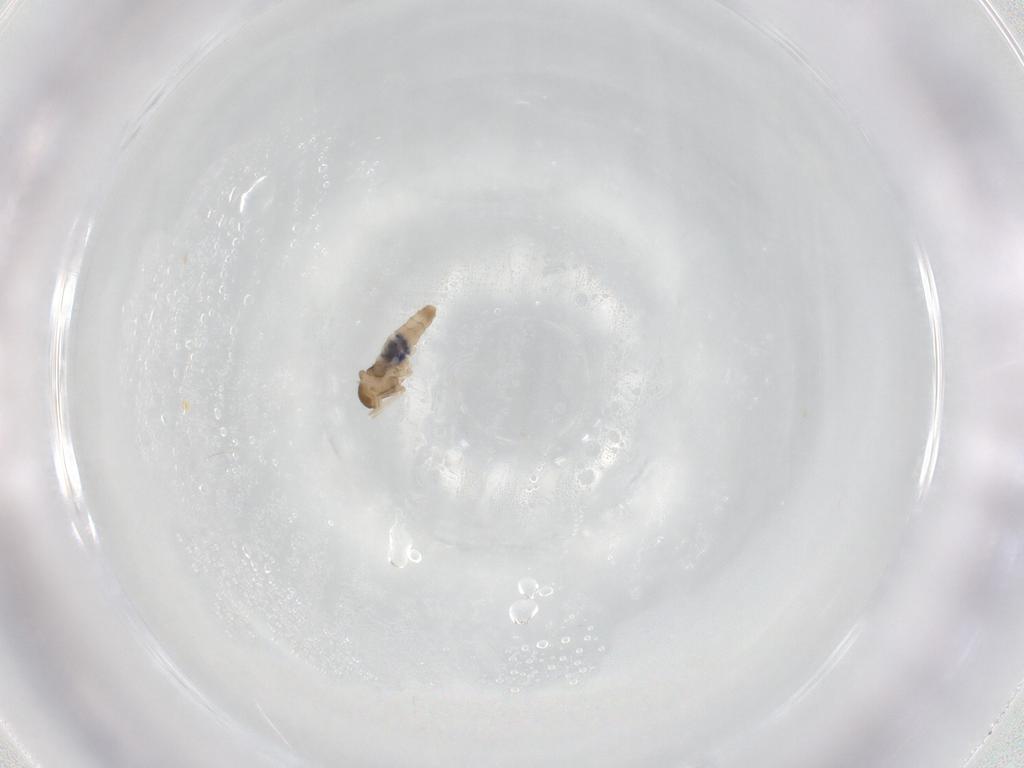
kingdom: Animalia
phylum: Arthropoda
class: Insecta
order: Diptera
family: Tabanidae
